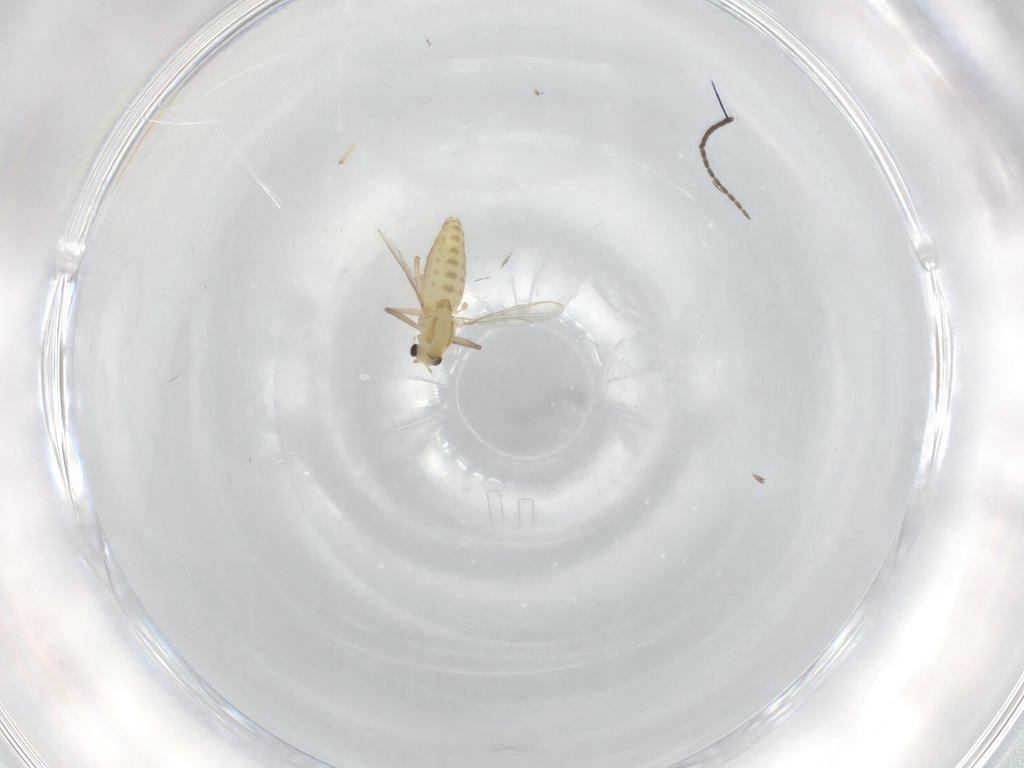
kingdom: Animalia
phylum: Arthropoda
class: Insecta
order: Diptera
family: Chironomidae
